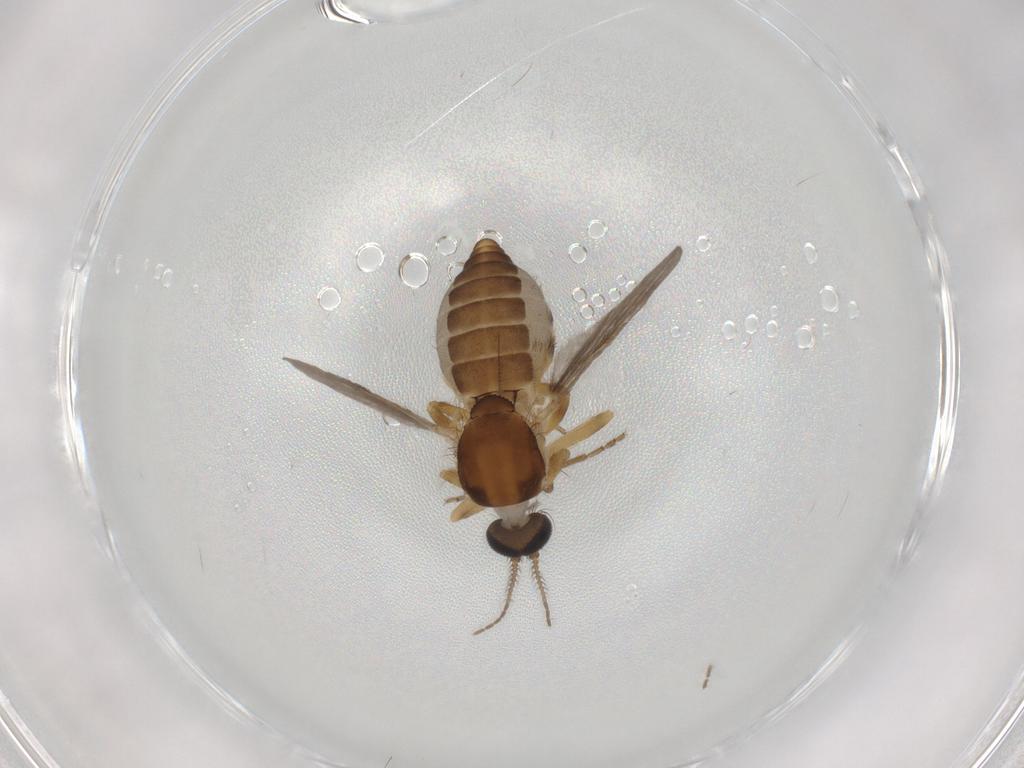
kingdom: Animalia
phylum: Arthropoda
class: Insecta
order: Diptera
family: Ceratopogonidae
